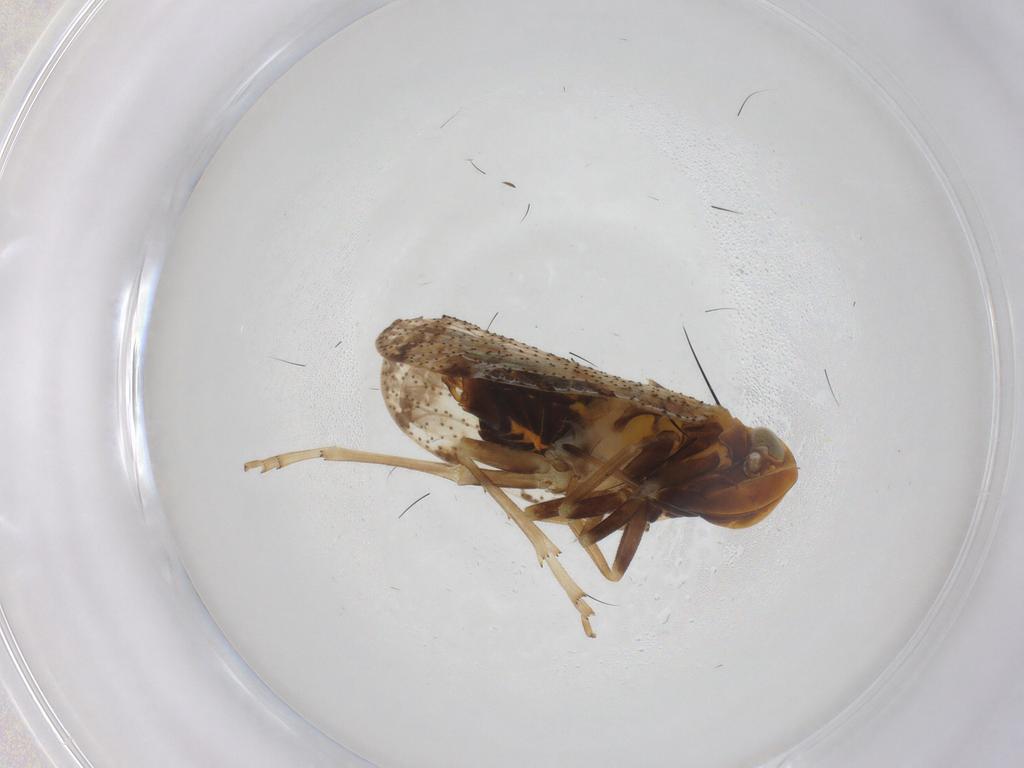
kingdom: Animalia
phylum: Arthropoda
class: Insecta
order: Hemiptera
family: Cixiidae
